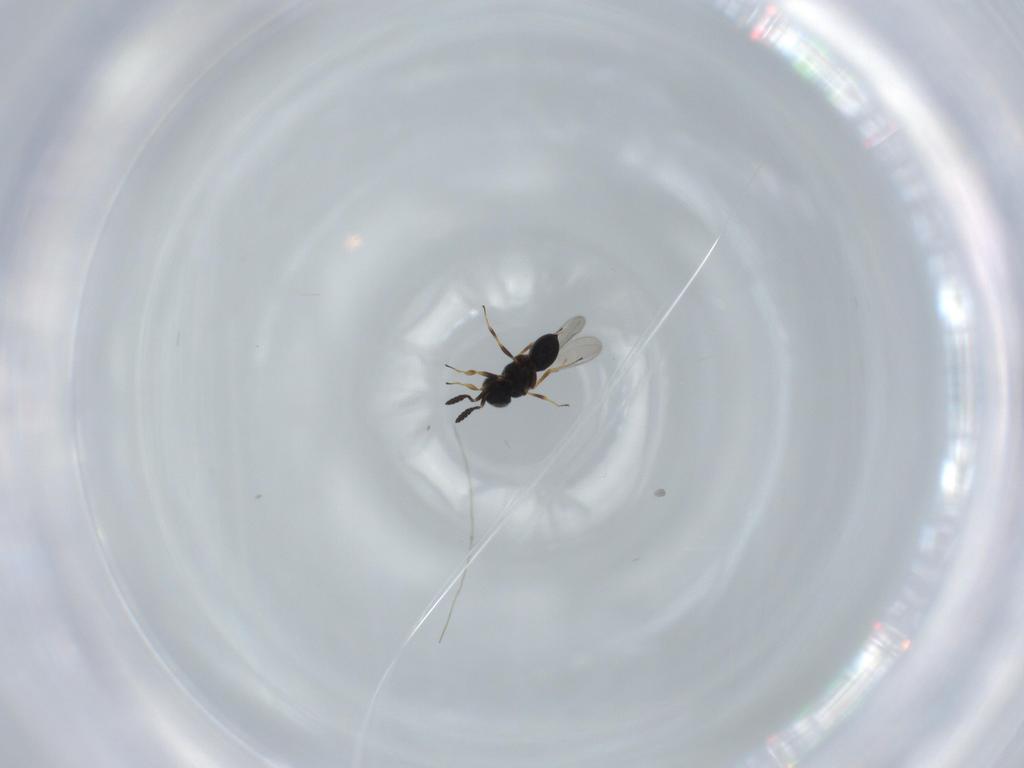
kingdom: Animalia
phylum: Arthropoda
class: Insecta
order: Hymenoptera
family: Scelionidae
